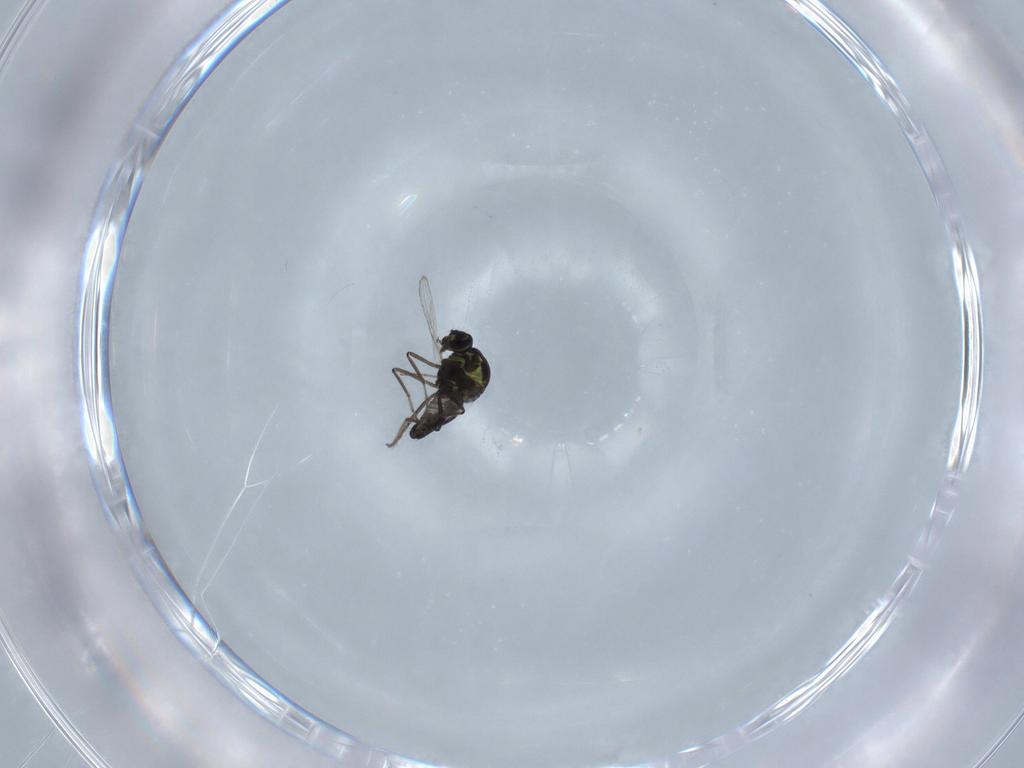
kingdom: Animalia
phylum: Arthropoda
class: Insecta
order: Diptera
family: Ceratopogonidae
